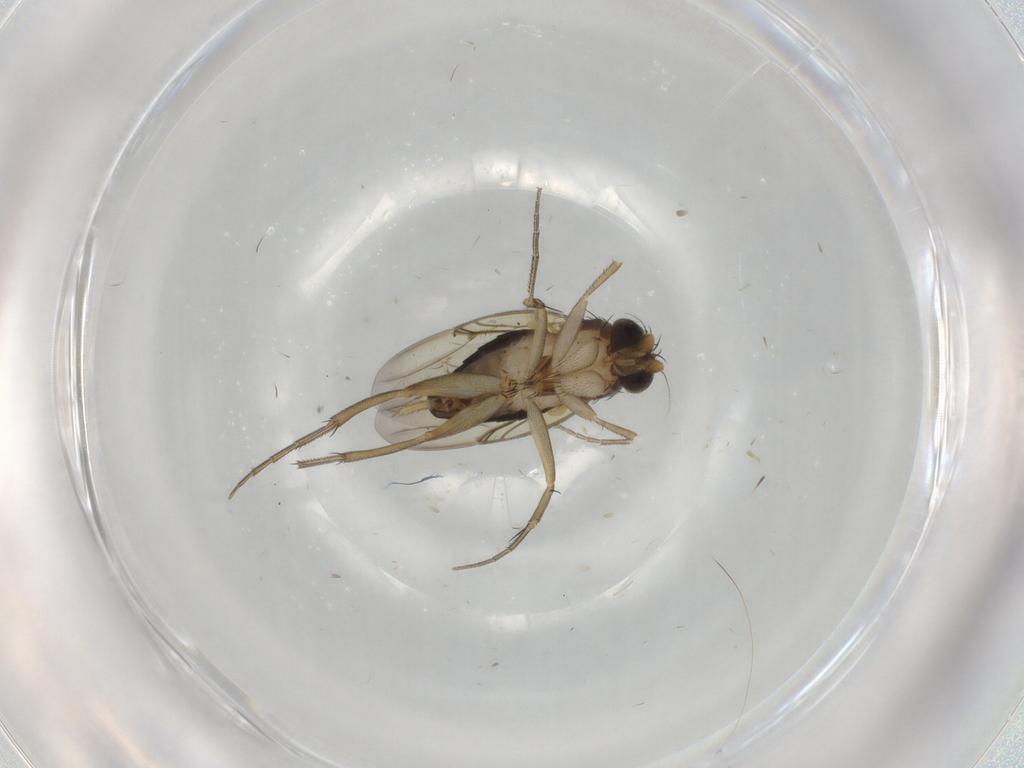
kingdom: Animalia
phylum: Arthropoda
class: Insecta
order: Diptera
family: Phoridae
